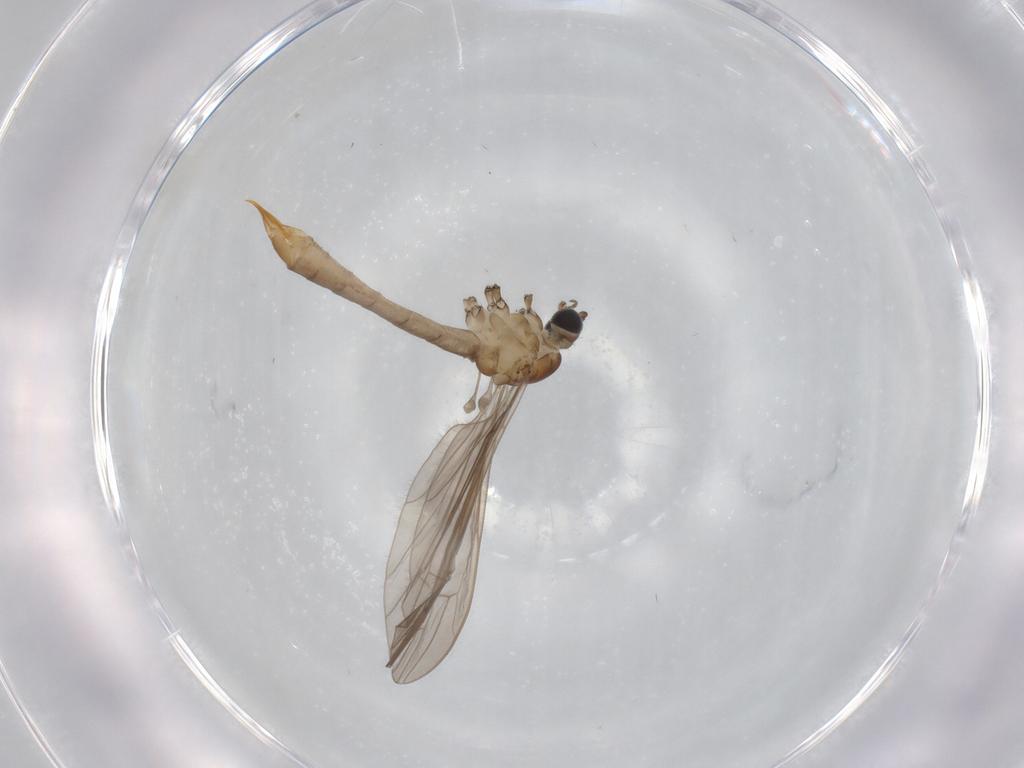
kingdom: Animalia
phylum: Arthropoda
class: Insecta
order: Diptera
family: Limoniidae
